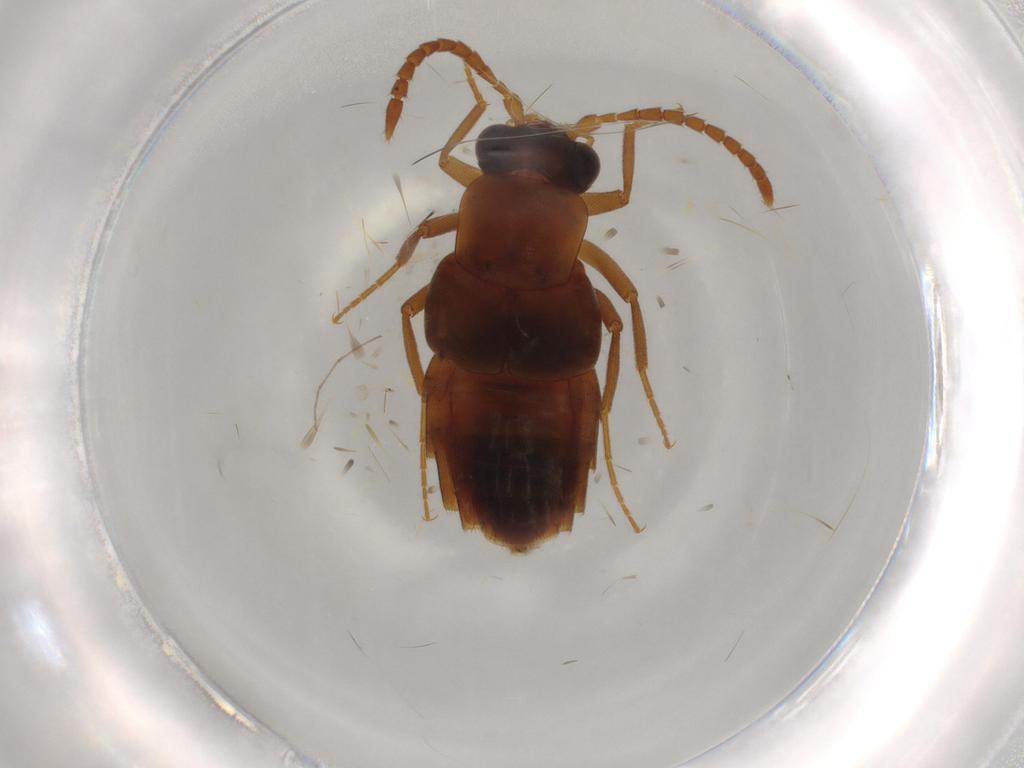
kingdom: Animalia
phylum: Arthropoda
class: Insecta
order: Coleoptera
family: Staphylinidae
